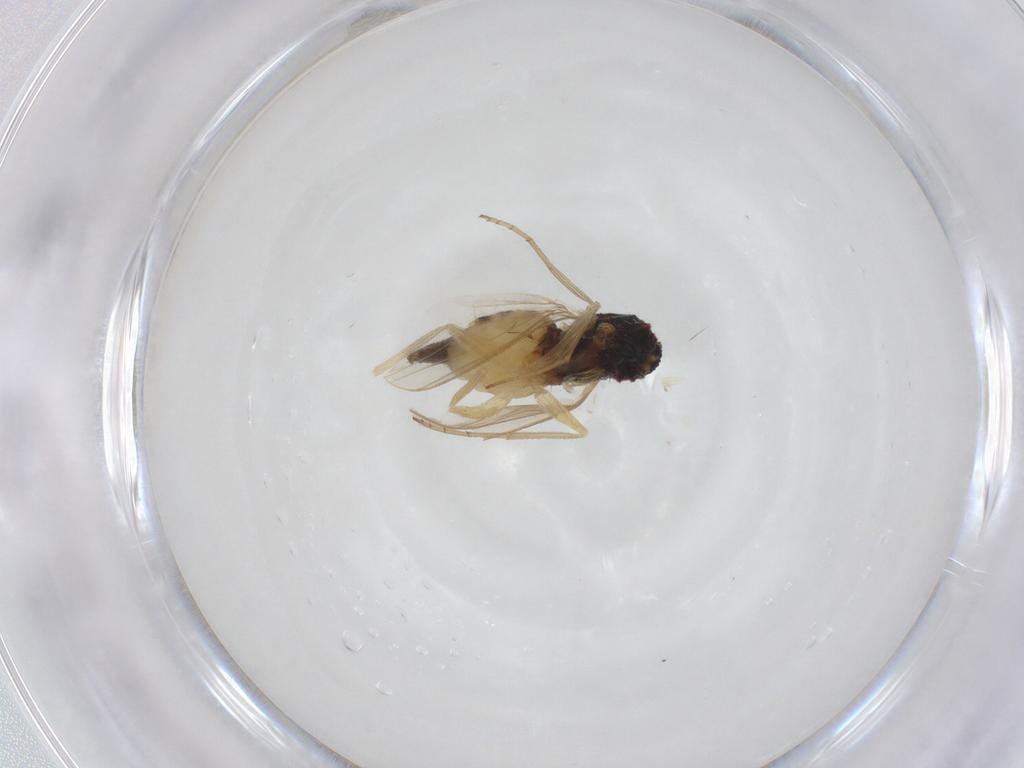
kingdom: Animalia
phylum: Arthropoda
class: Insecta
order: Diptera
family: Dolichopodidae
